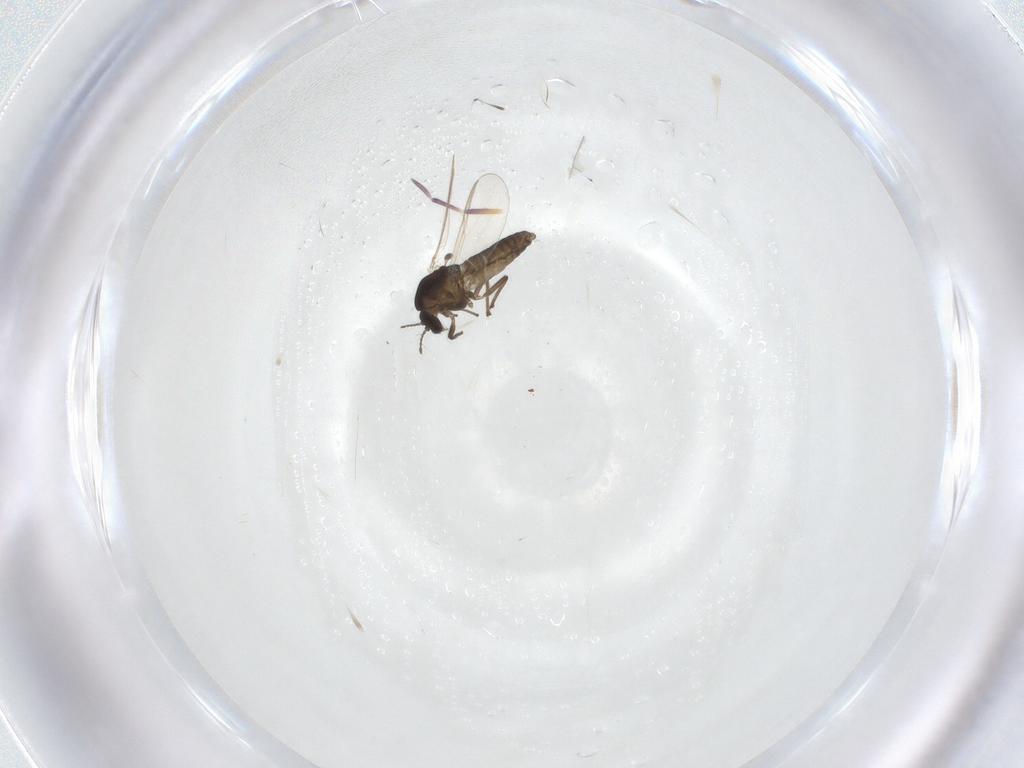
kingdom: Animalia
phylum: Arthropoda
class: Insecta
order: Diptera
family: Chironomidae
